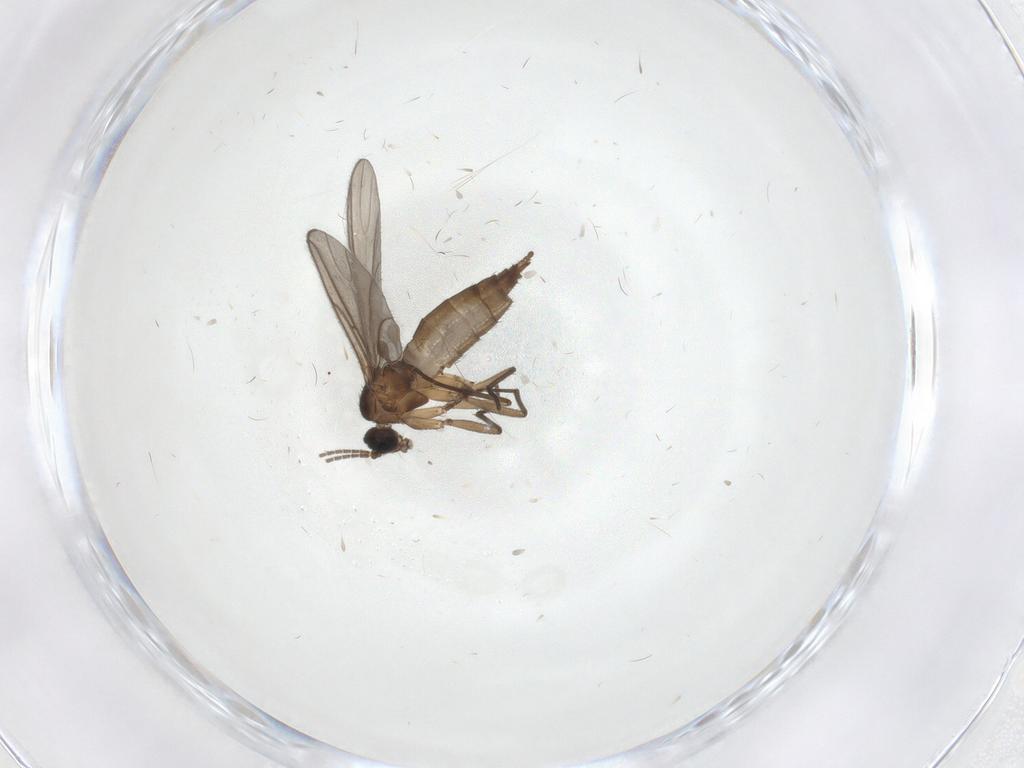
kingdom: Animalia
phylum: Arthropoda
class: Insecta
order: Diptera
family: Sciaridae
